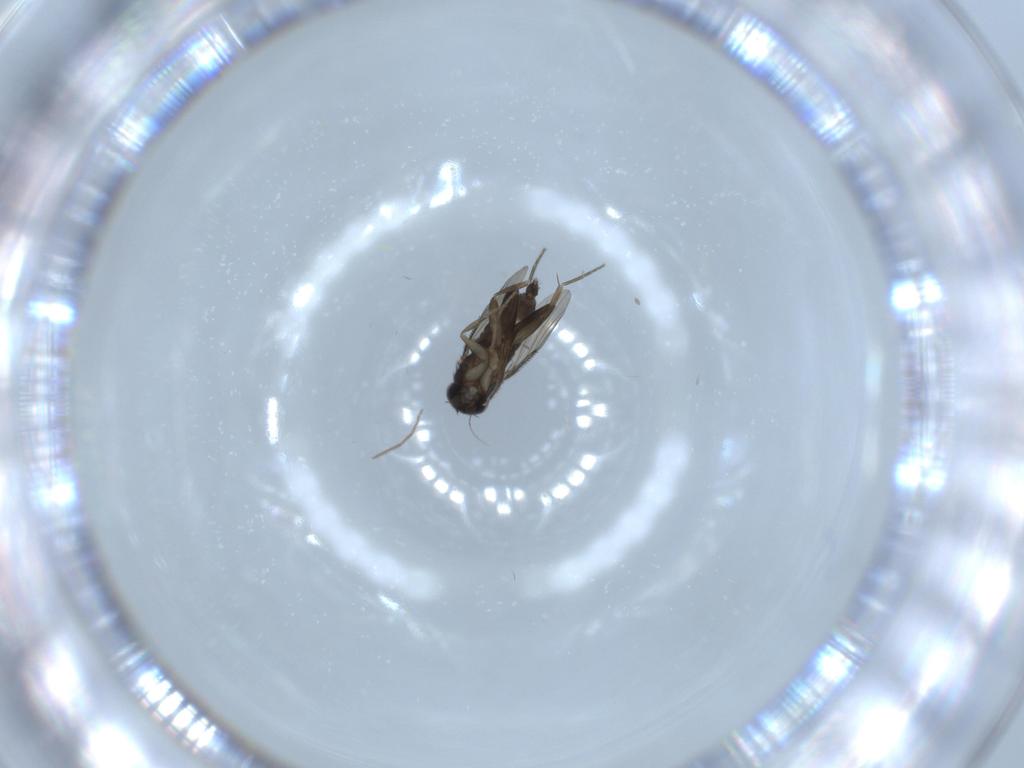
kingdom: Animalia
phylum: Arthropoda
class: Insecta
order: Diptera
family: Phoridae
